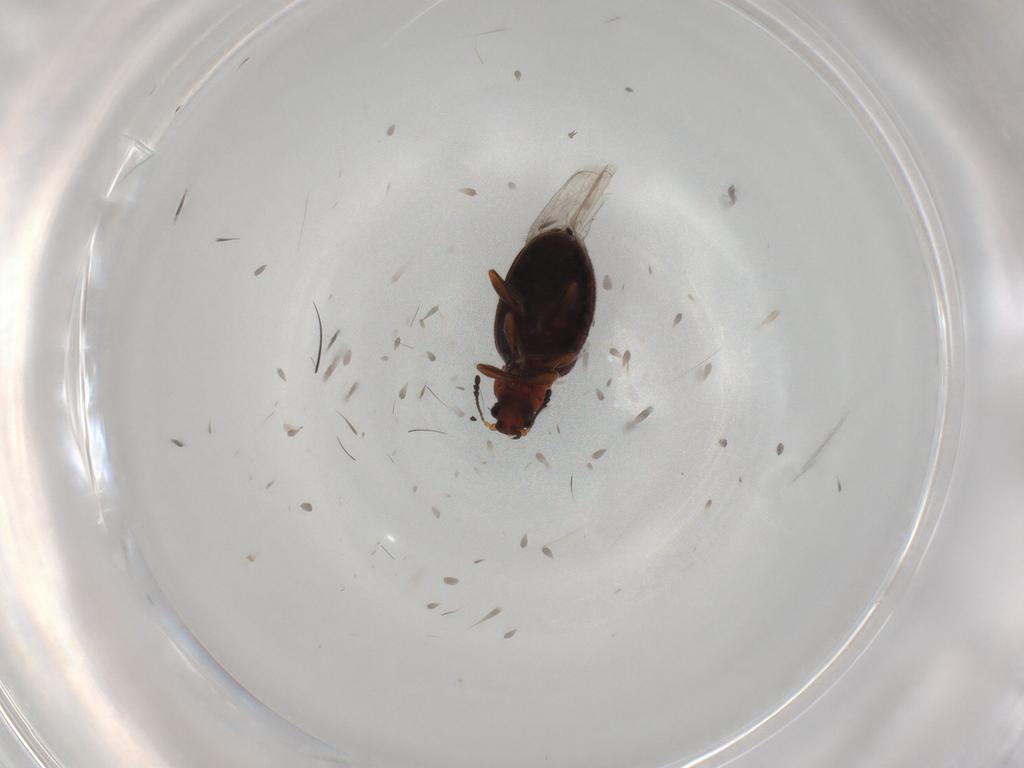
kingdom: Animalia
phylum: Arthropoda
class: Insecta
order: Coleoptera
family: Latridiidae
